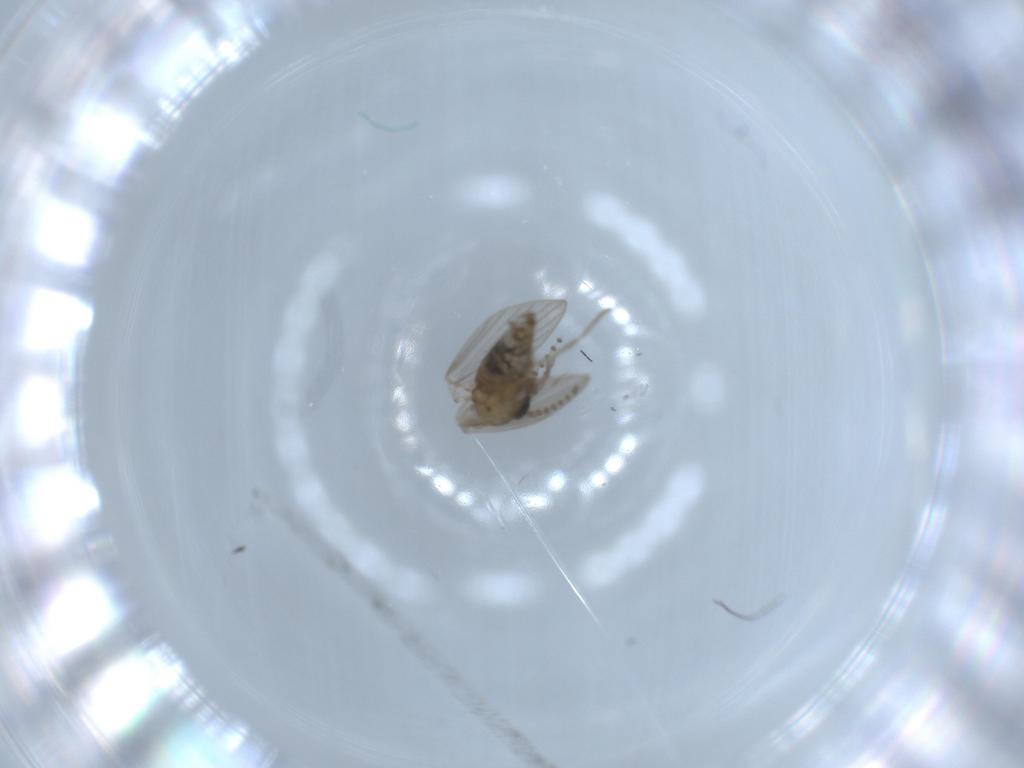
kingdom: Animalia
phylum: Arthropoda
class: Insecta
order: Diptera
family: Psychodidae
